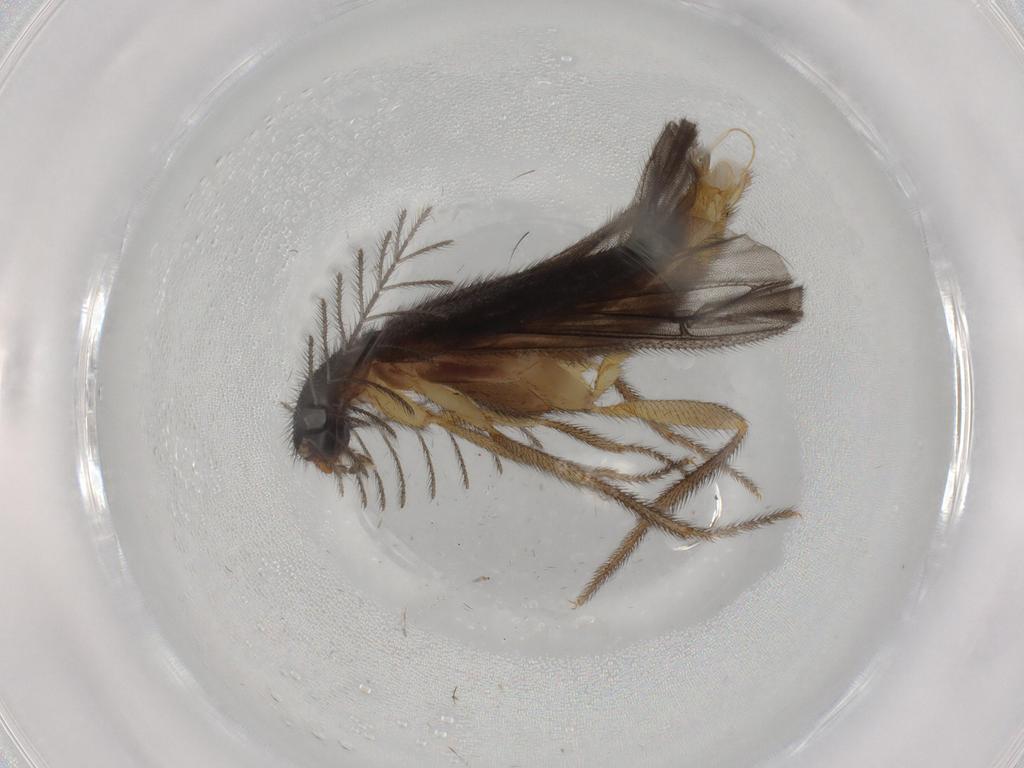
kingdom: Animalia
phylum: Arthropoda
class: Insecta
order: Coleoptera
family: Phengodidae
